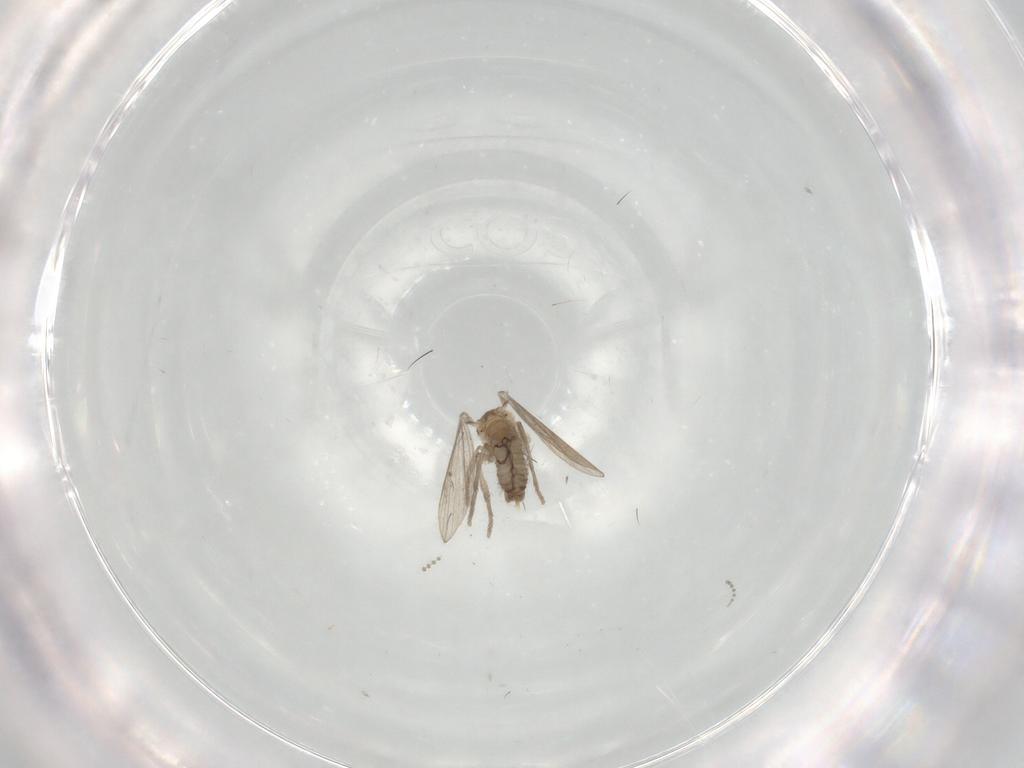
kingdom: Animalia
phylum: Arthropoda
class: Insecta
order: Diptera
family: Psychodidae
